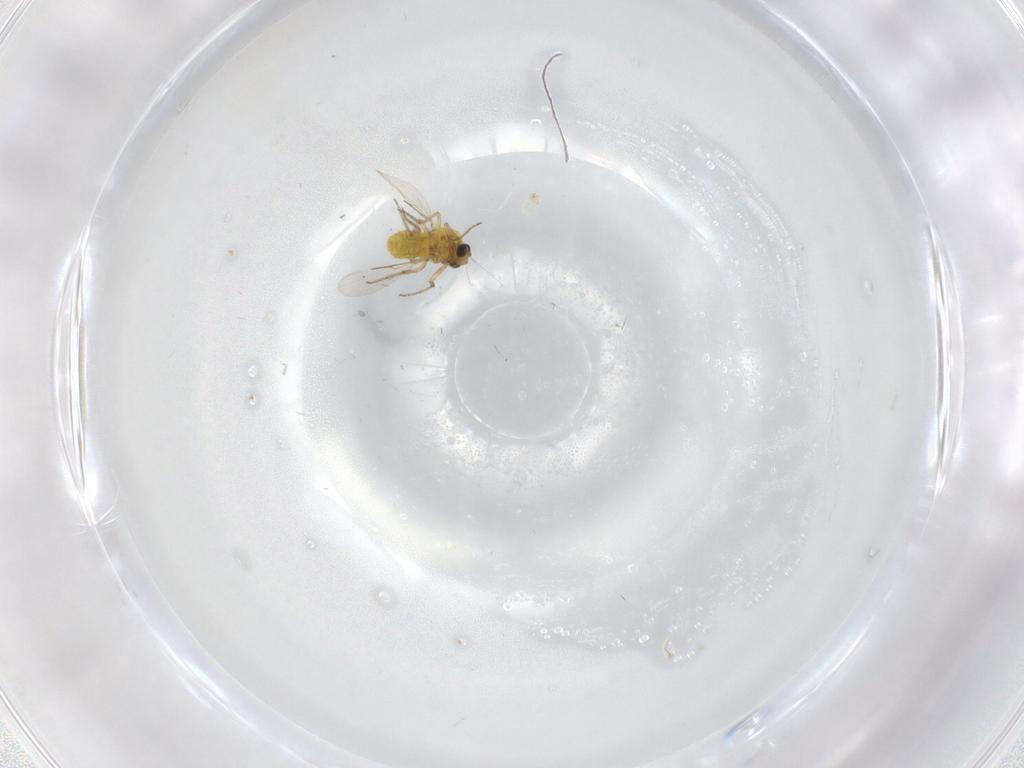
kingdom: Animalia
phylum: Arthropoda
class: Insecta
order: Diptera
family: Ceratopogonidae
